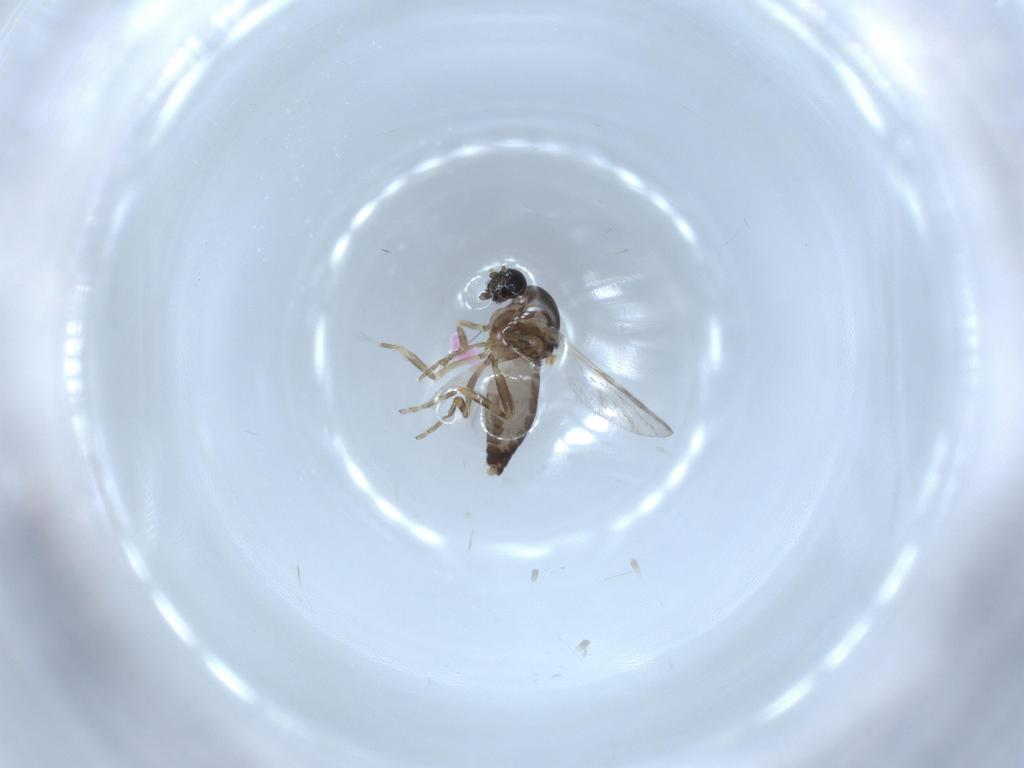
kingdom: Animalia
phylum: Arthropoda
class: Insecta
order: Diptera
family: Ceratopogonidae
